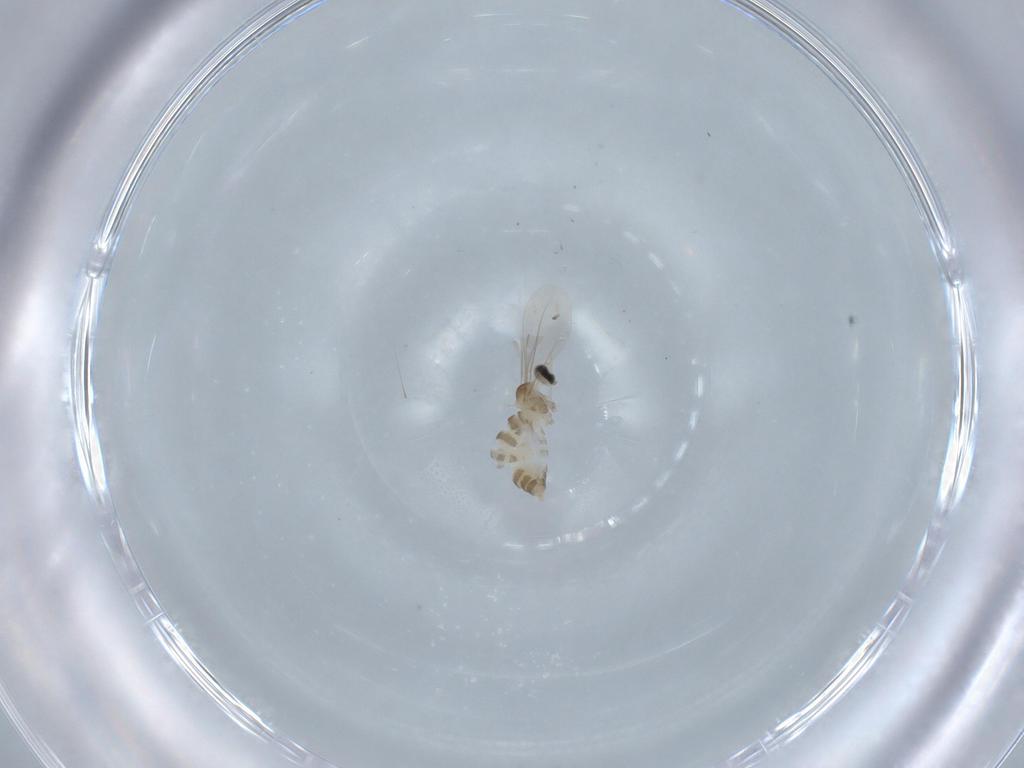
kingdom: Animalia
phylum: Arthropoda
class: Insecta
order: Diptera
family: Cecidomyiidae
